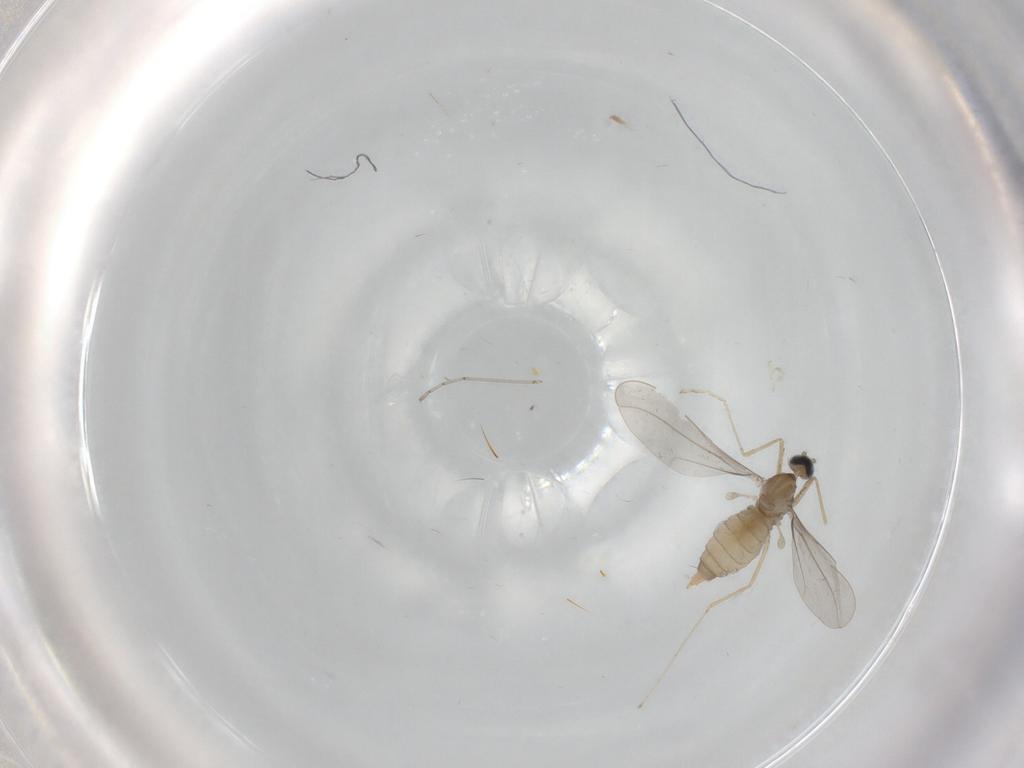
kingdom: Animalia
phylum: Arthropoda
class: Insecta
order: Diptera
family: Cecidomyiidae
